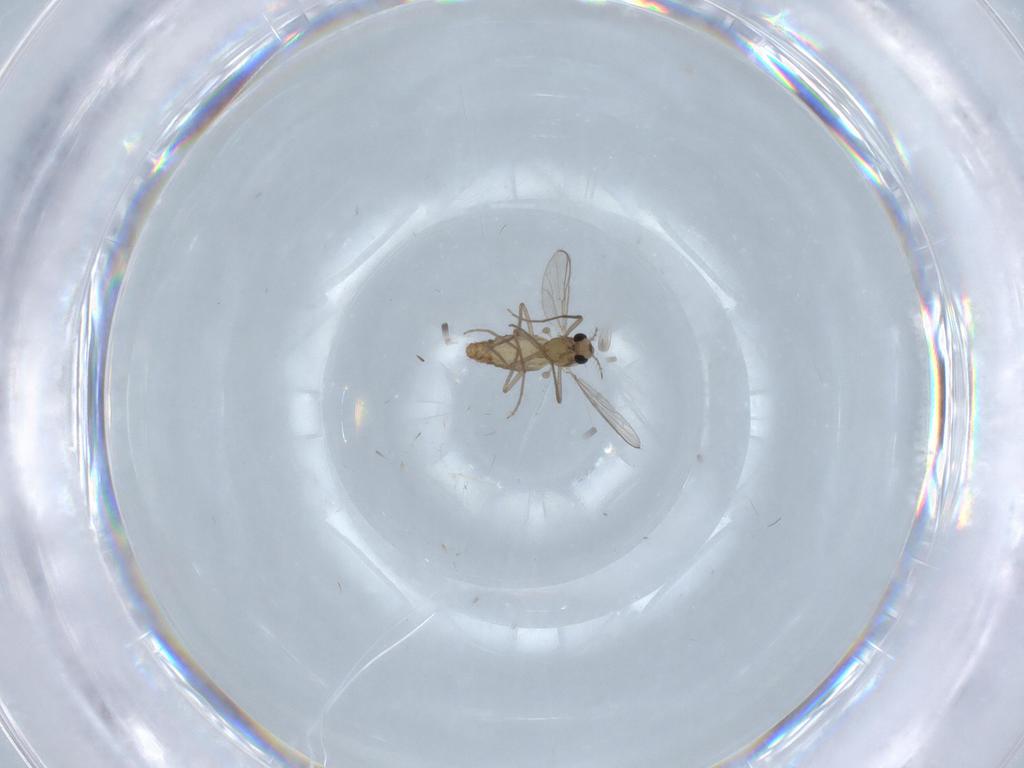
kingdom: Animalia
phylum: Arthropoda
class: Insecta
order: Diptera
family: Chironomidae
